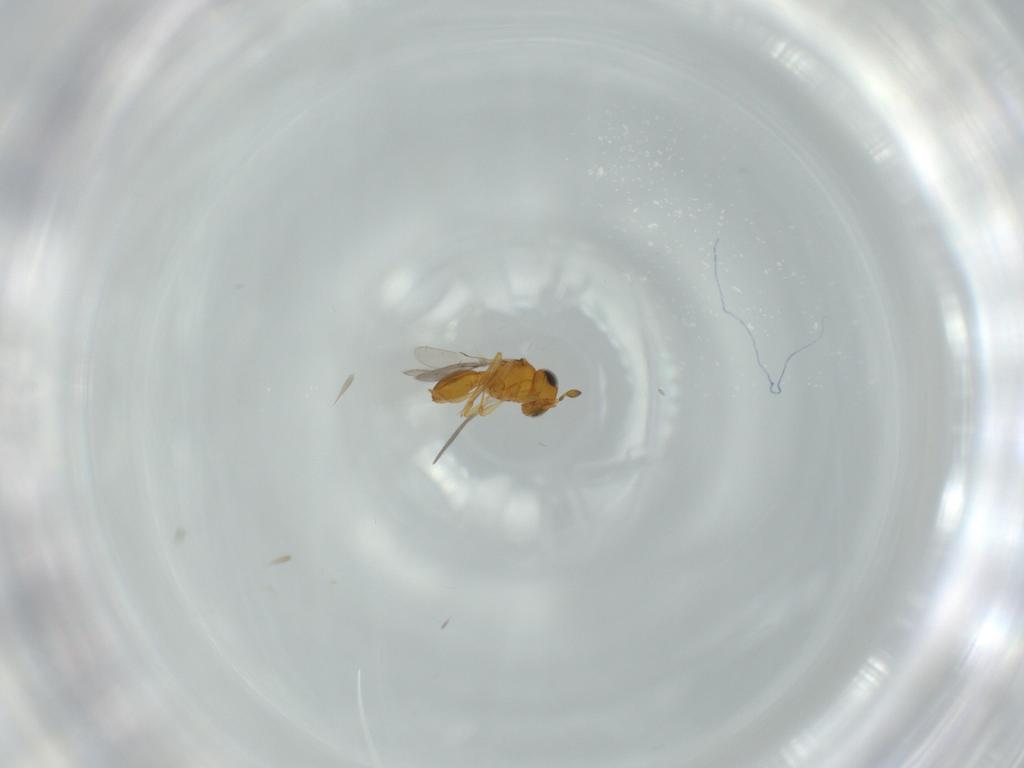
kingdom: Animalia
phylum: Arthropoda
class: Insecta
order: Hymenoptera
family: Scelionidae
